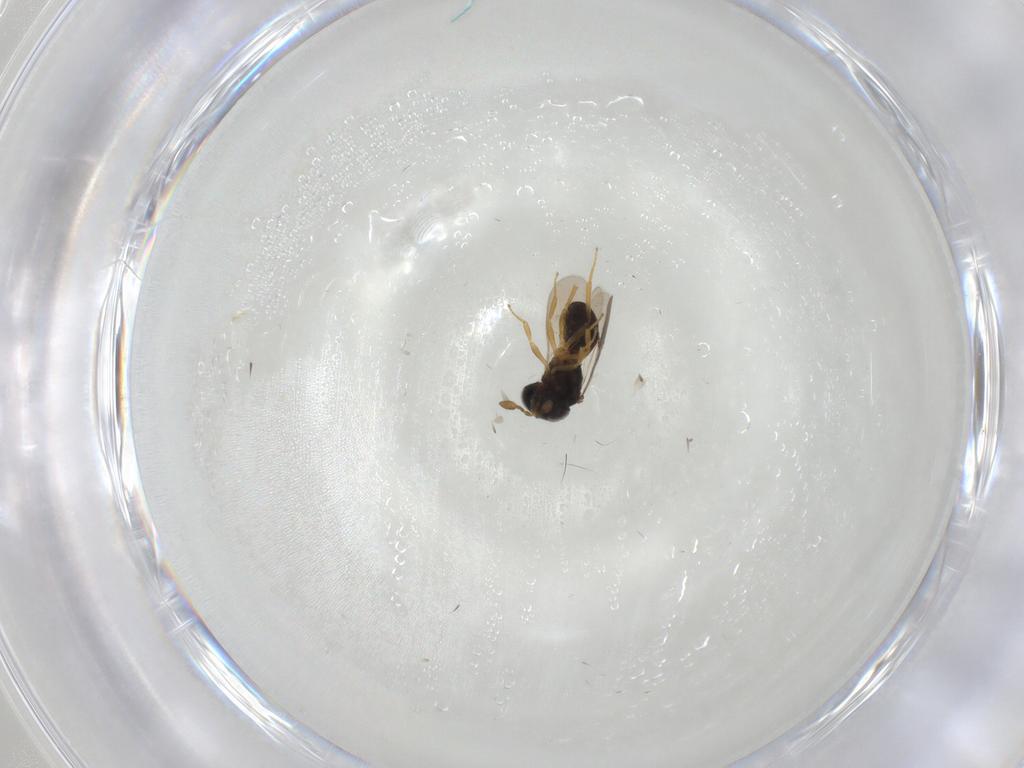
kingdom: Animalia
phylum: Arthropoda
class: Insecta
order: Hymenoptera
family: Scelionidae
